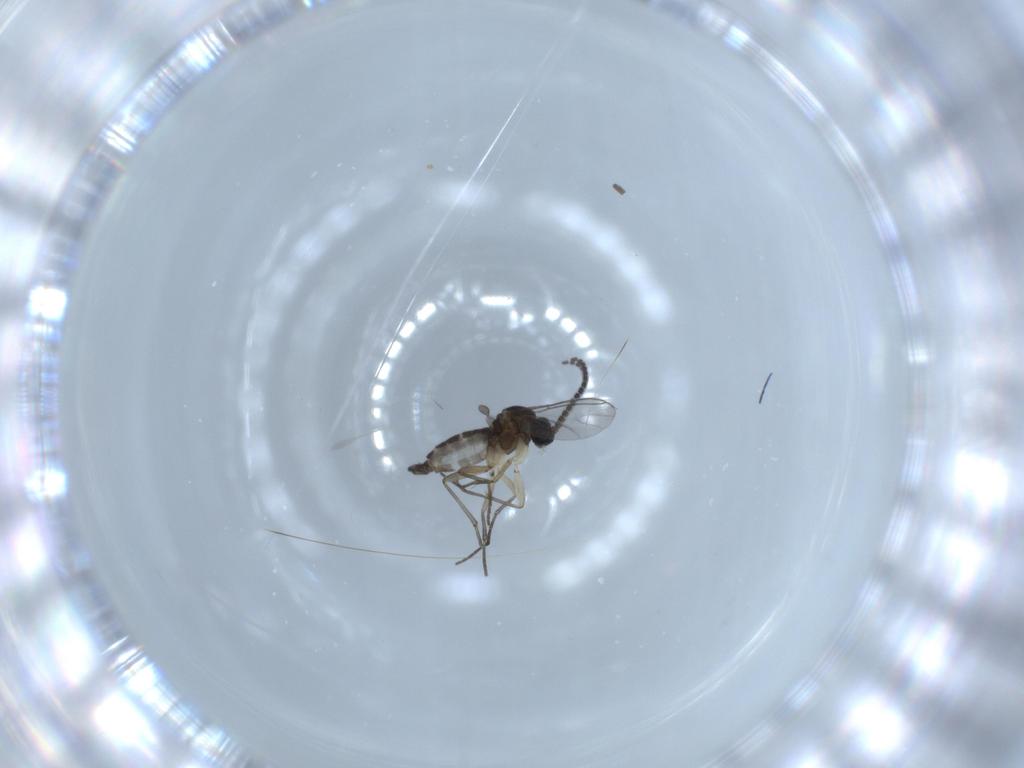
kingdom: Animalia
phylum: Arthropoda
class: Insecta
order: Diptera
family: Sciaridae
